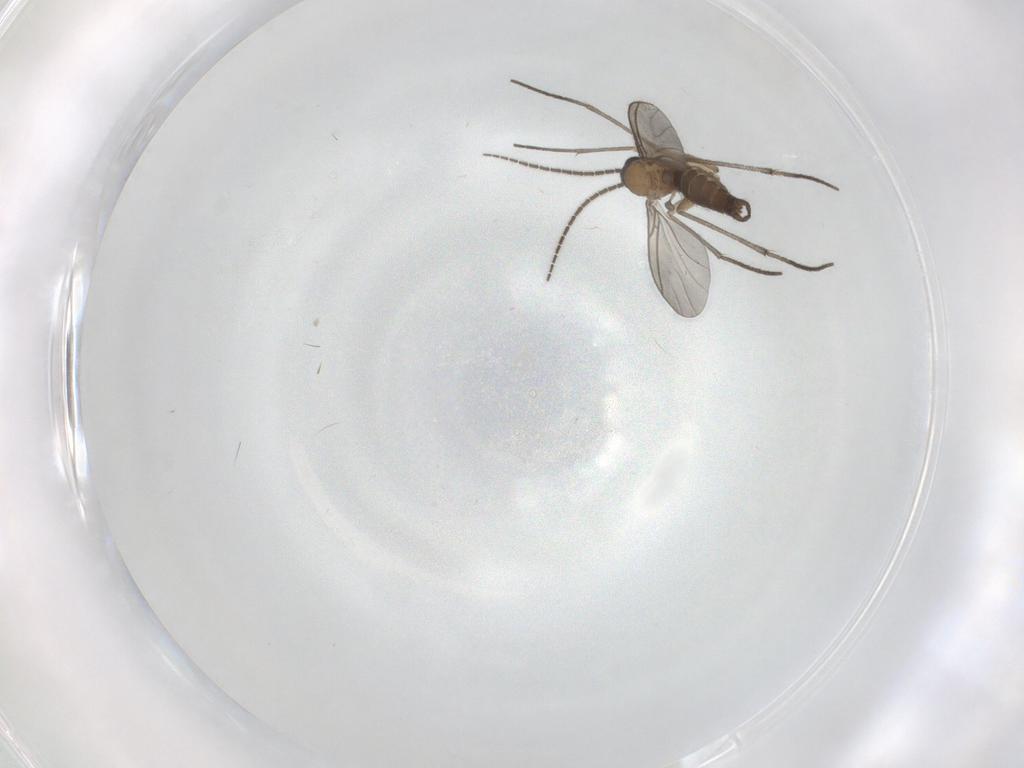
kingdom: Animalia
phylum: Arthropoda
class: Insecta
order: Diptera
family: Sciaridae
